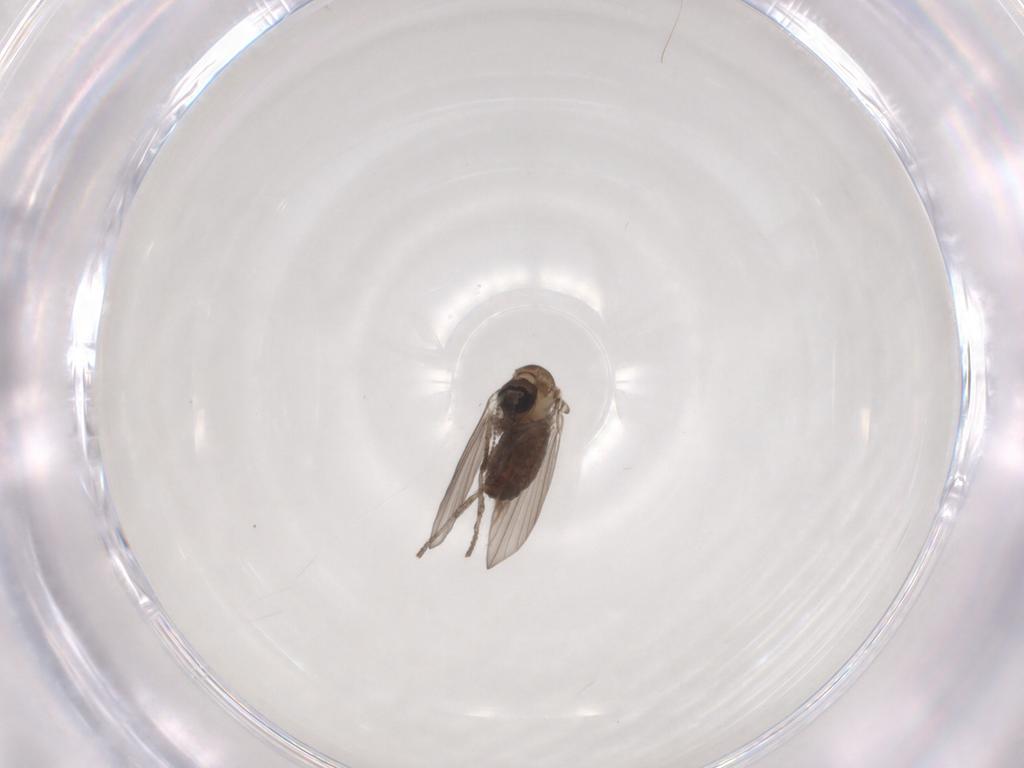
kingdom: Animalia
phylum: Arthropoda
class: Insecta
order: Diptera
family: Psychodidae
